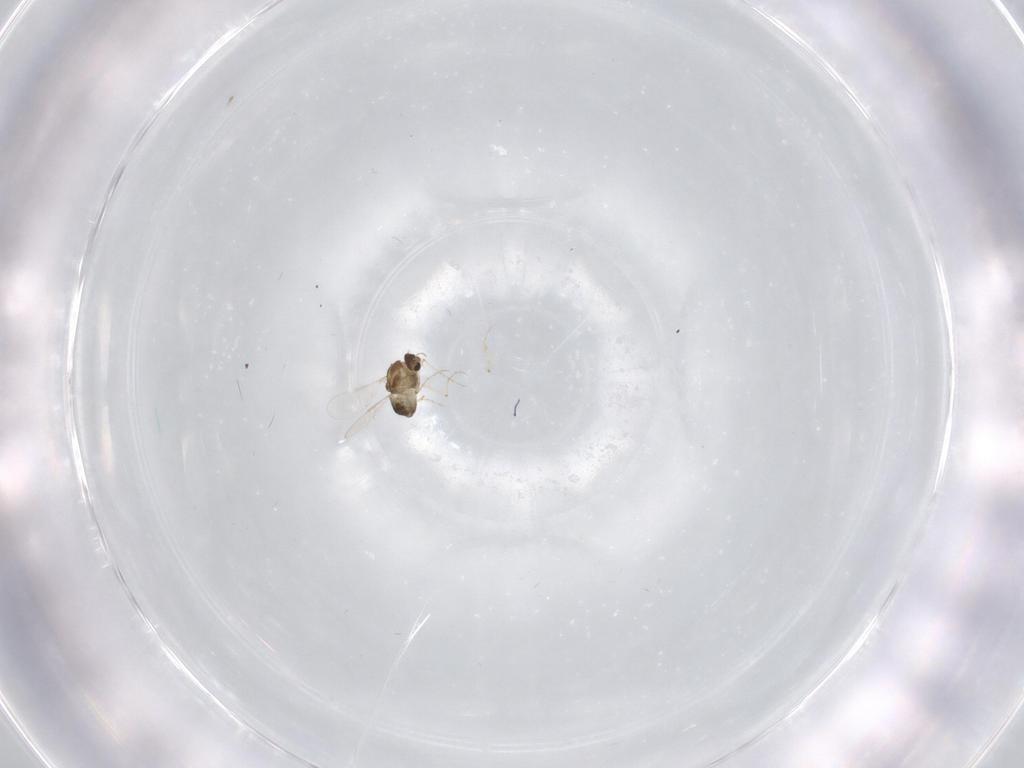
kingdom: Animalia
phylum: Arthropoda
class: Insecta
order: Diptera
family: Chironomidae
